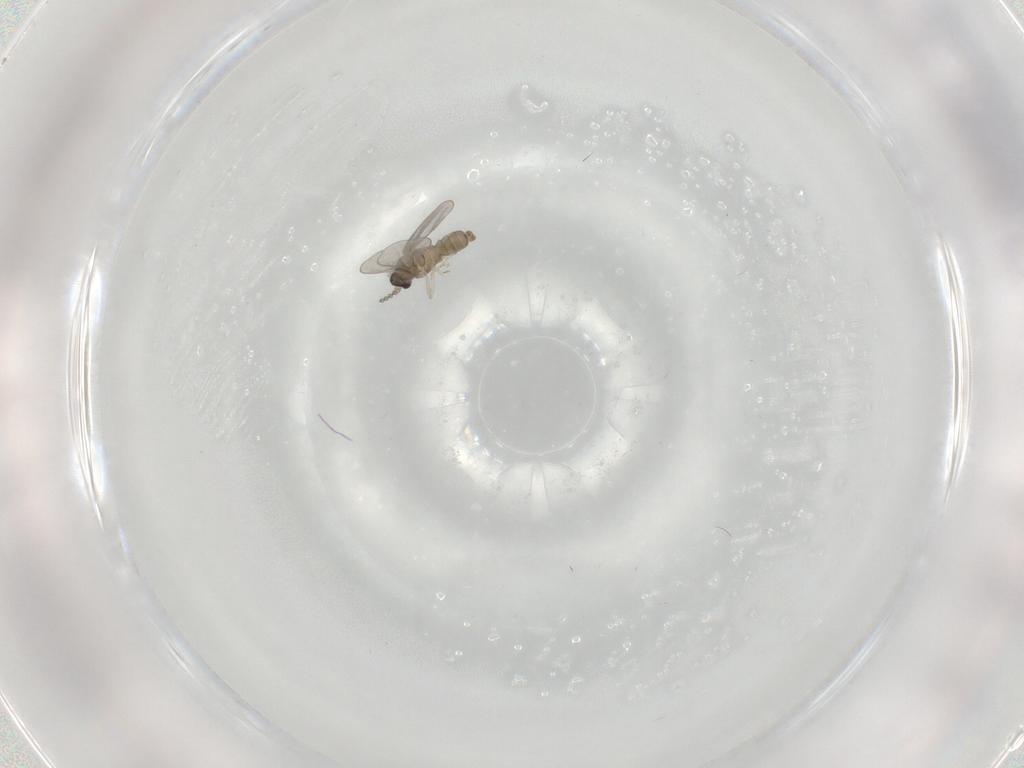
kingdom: Animalia
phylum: Arthropoda
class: Insecta
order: Diptera
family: Cecidomyiidae
